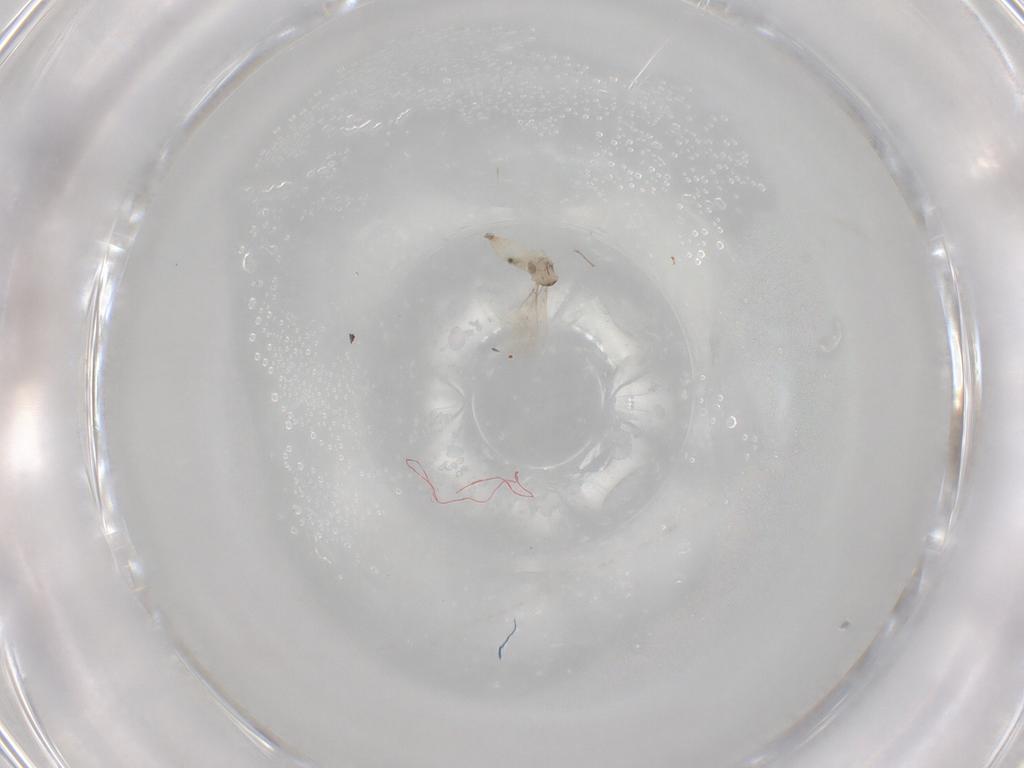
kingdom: Animalia
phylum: Arthropoda
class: Insecta
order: Diptera
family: Cecidomyiidae
